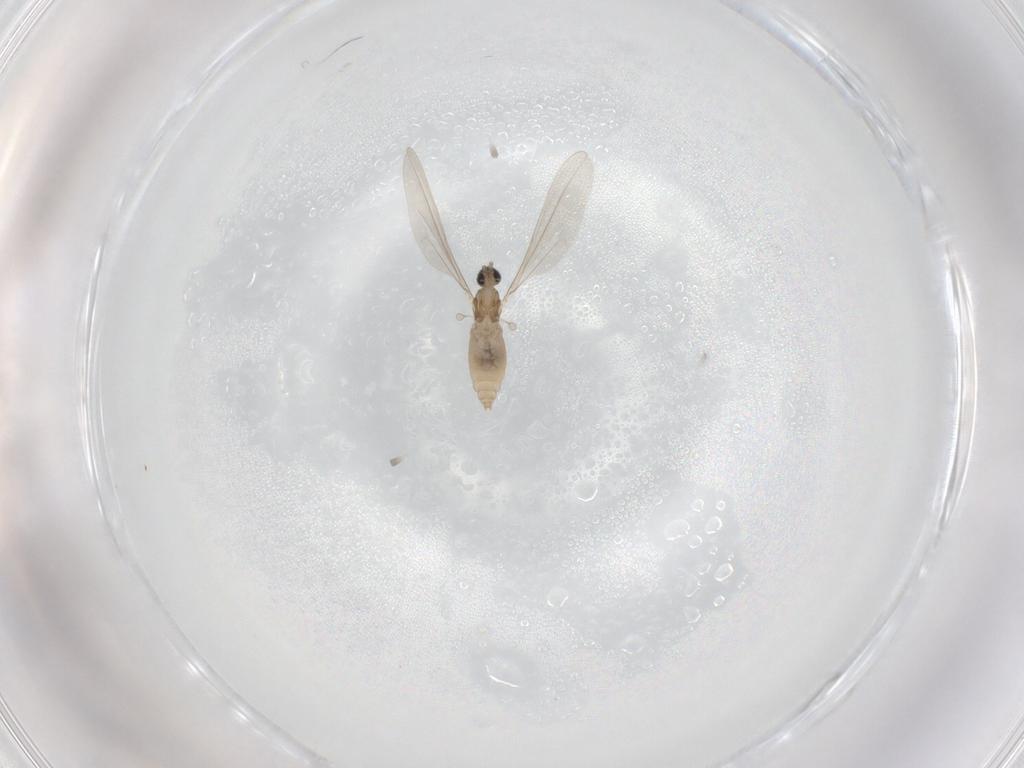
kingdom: Animalia
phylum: Arthropoda
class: Insecta
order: Diptera
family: Cecidomyiidae
